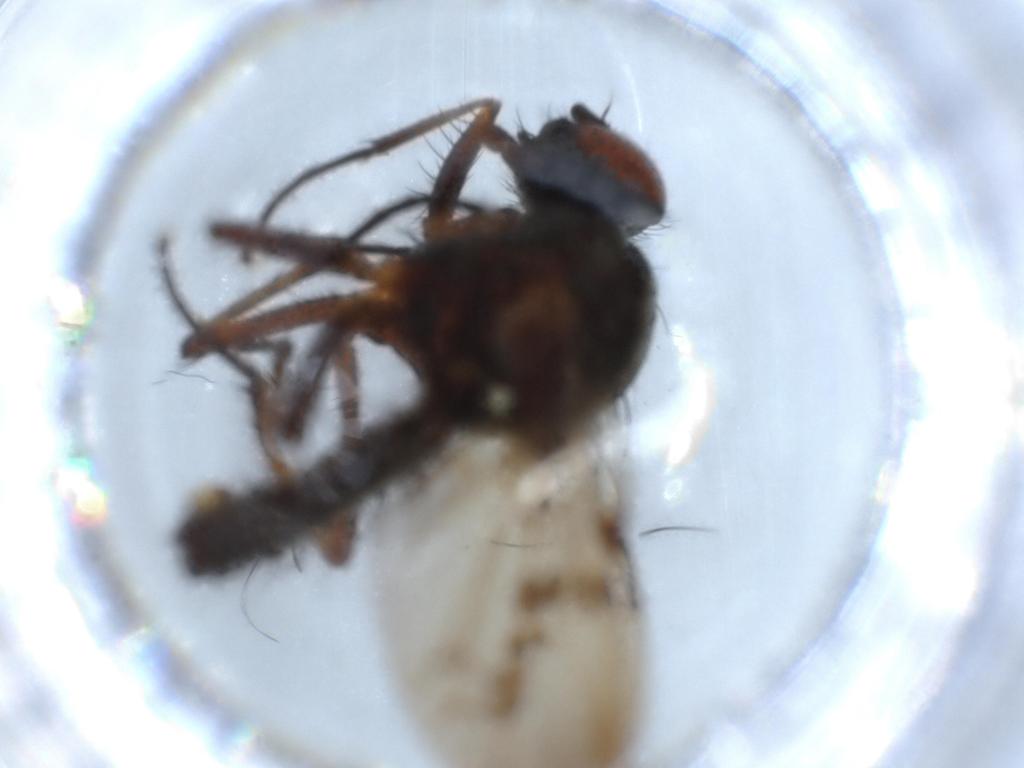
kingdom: Animalia
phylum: Arthropoda
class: Insecta
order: Diptera
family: Anthomyiidae
